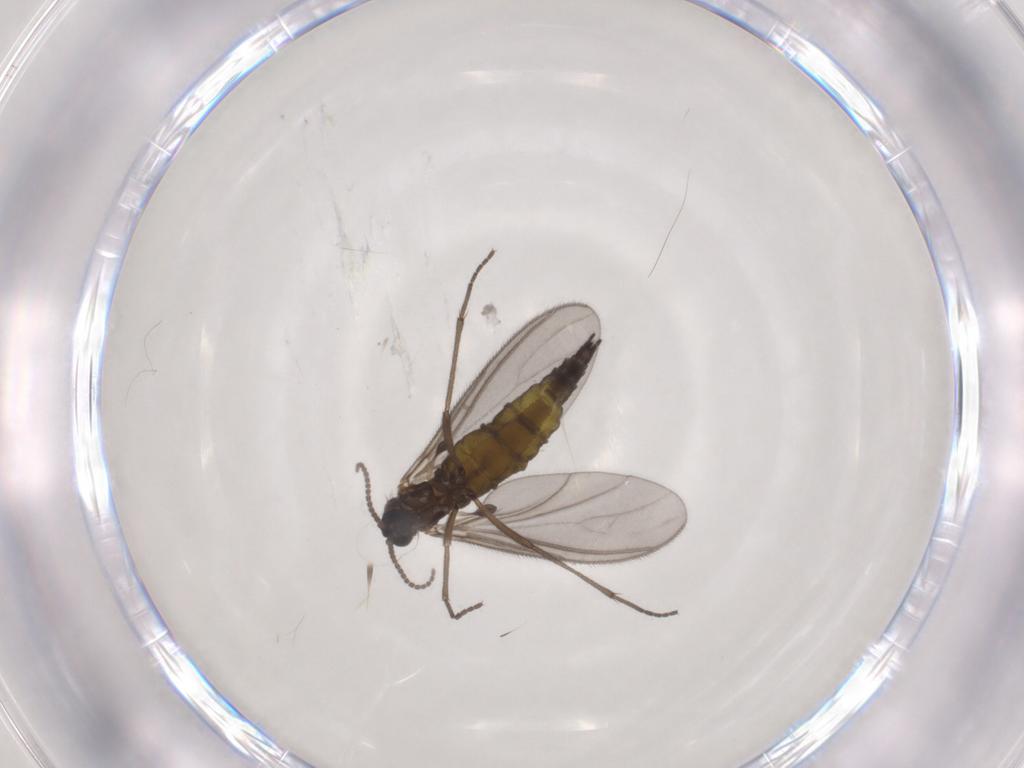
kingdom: Animalia
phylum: Arthropoda
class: Insecta
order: Diptera
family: Sciaridae
